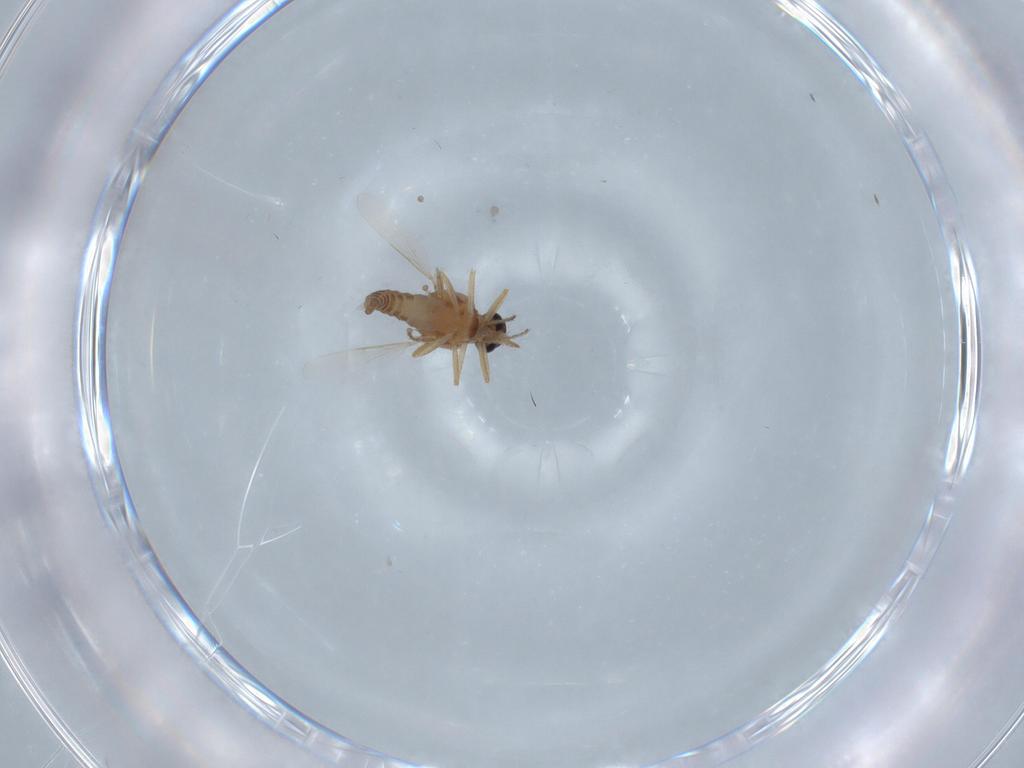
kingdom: Animalia
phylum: Arthropoda
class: Insecta
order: Diptera
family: Ceratopogonidae
